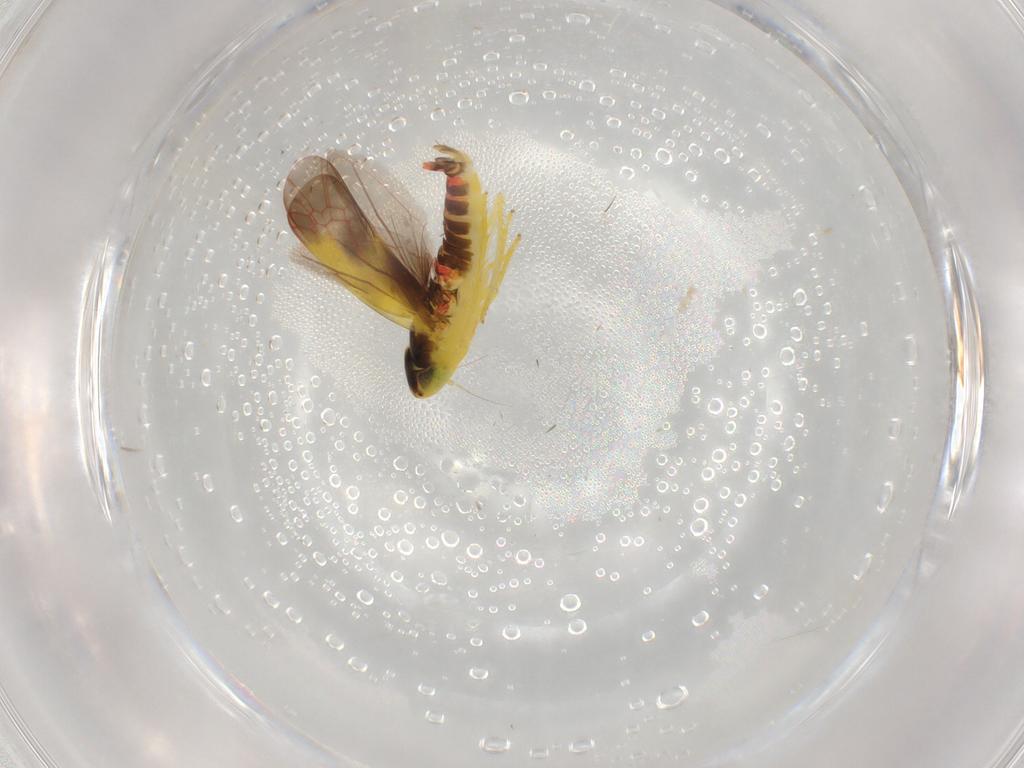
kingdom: Animalia
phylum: Arthropoda
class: Insecta
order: Hemiptera
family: Cicadellidae
